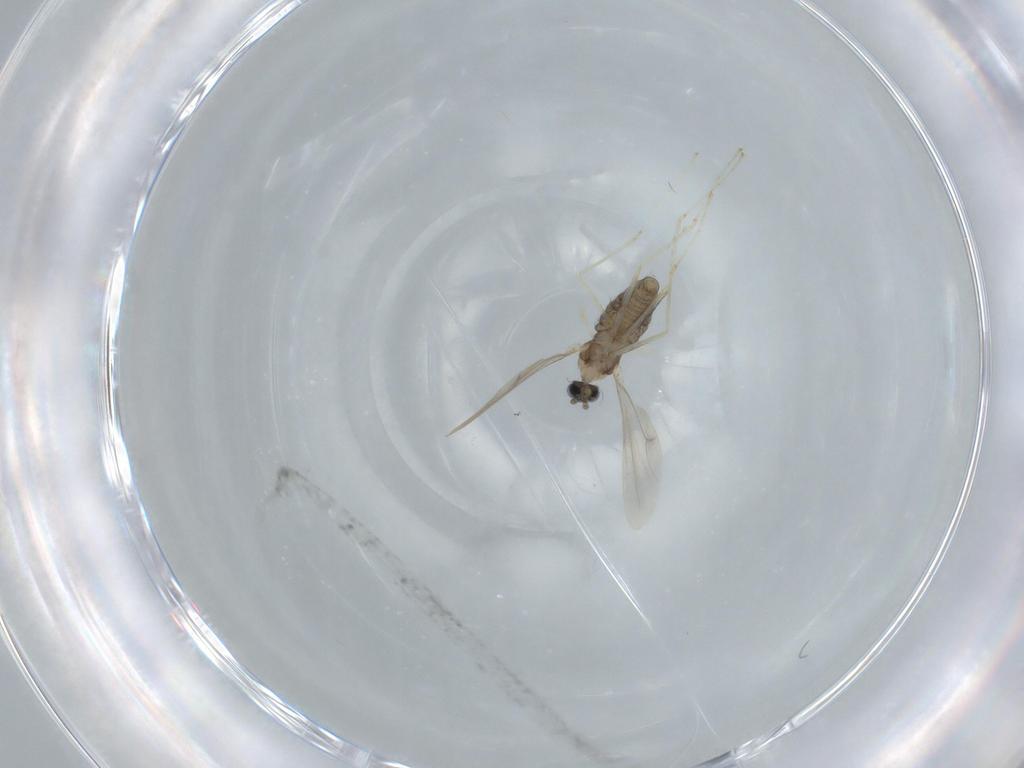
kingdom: Animalia
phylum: Arthropoda
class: Insecta
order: Diptera
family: Cecidomyiidae
